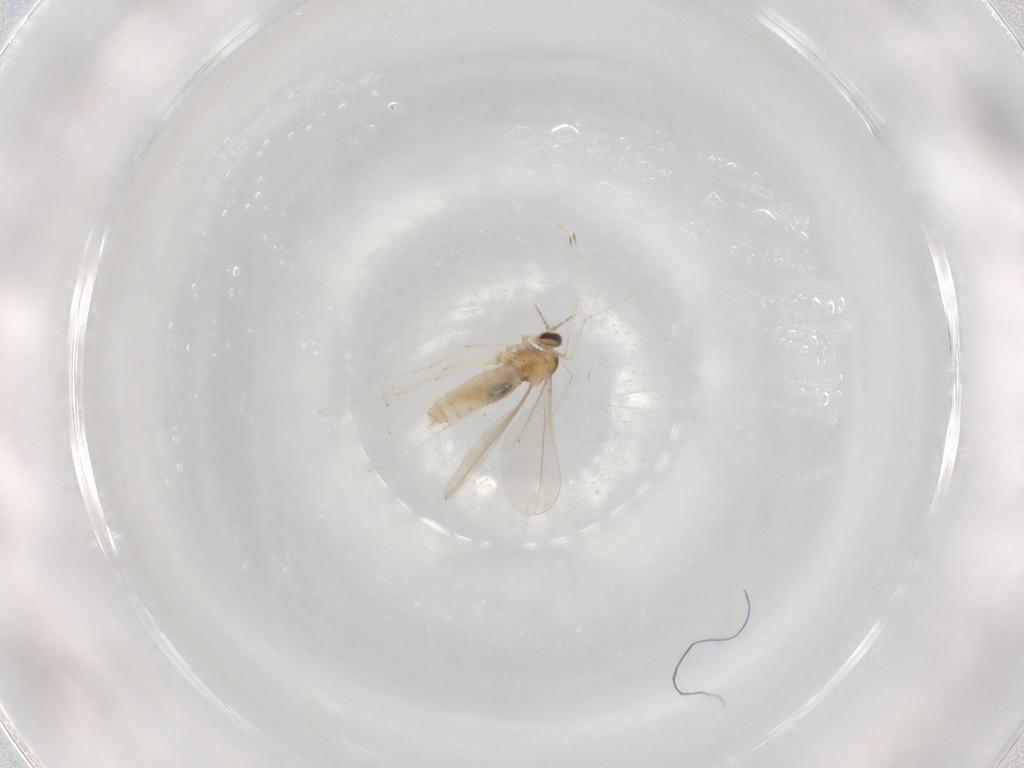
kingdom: Animalia
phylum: Arthropoda
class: Insecta
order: Diptera
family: Cecidomyiidae
